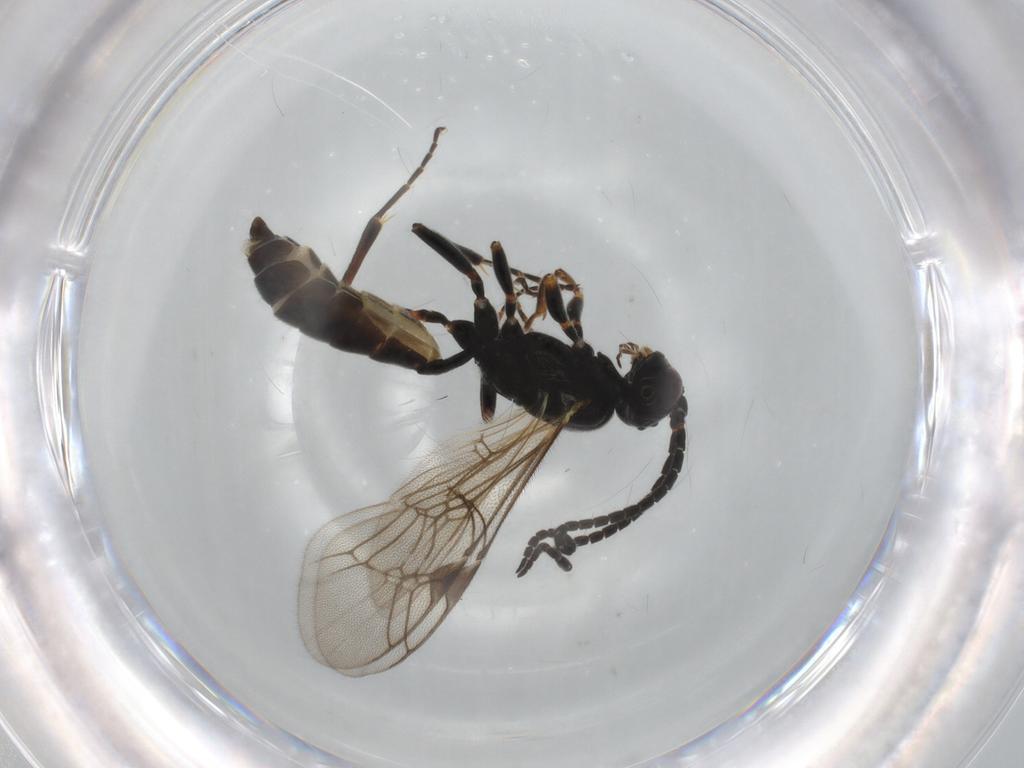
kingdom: Animalia
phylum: Arthropoda
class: Insecta
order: Hymenoptera
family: Ichneumonidae
